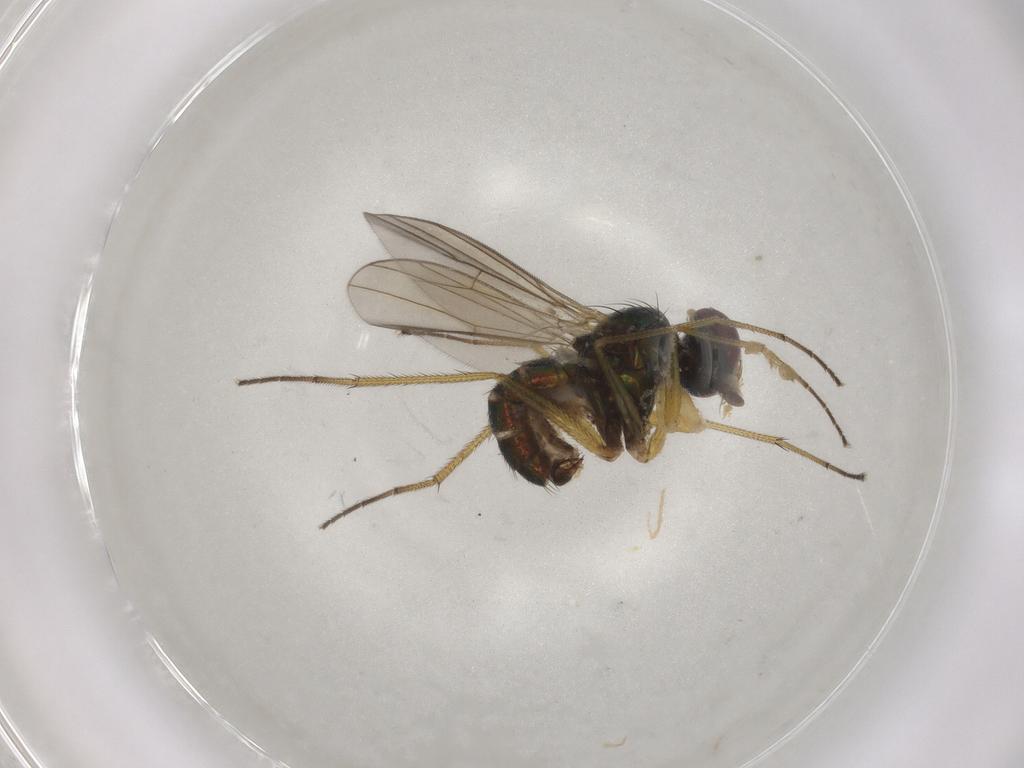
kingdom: Animalia
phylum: Arthropoda
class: Insecta
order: Diptera
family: Dolichopodidae
